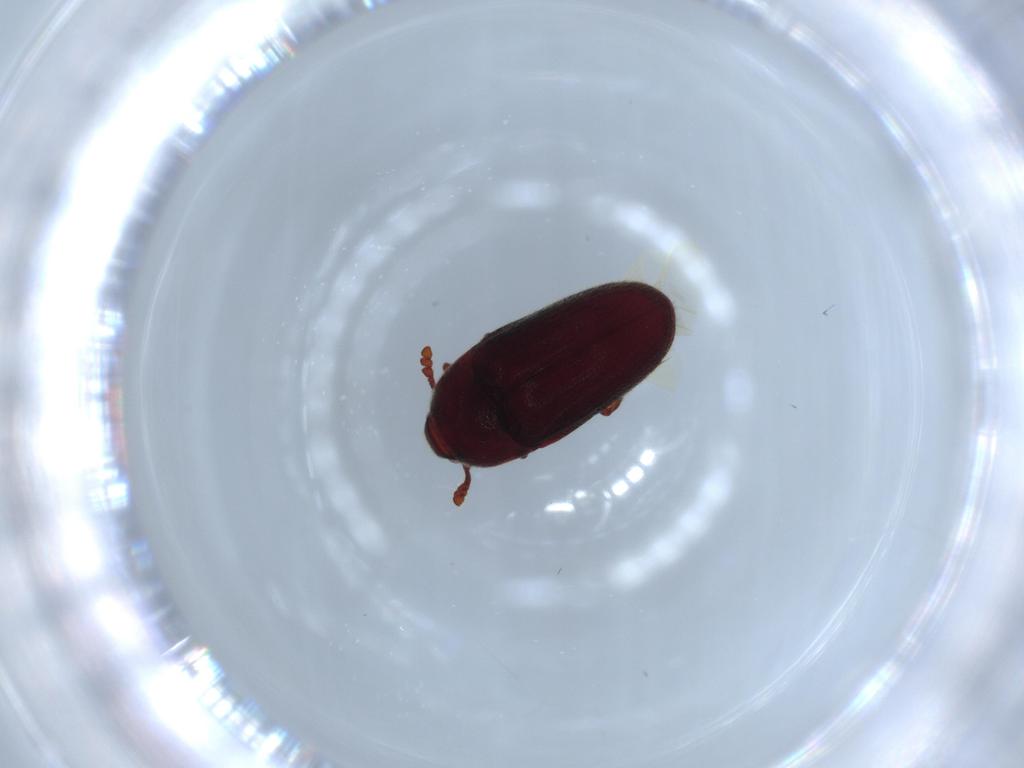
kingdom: Animalia
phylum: Arthropoda
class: Insecta
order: Coleoptera
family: Throscidae
